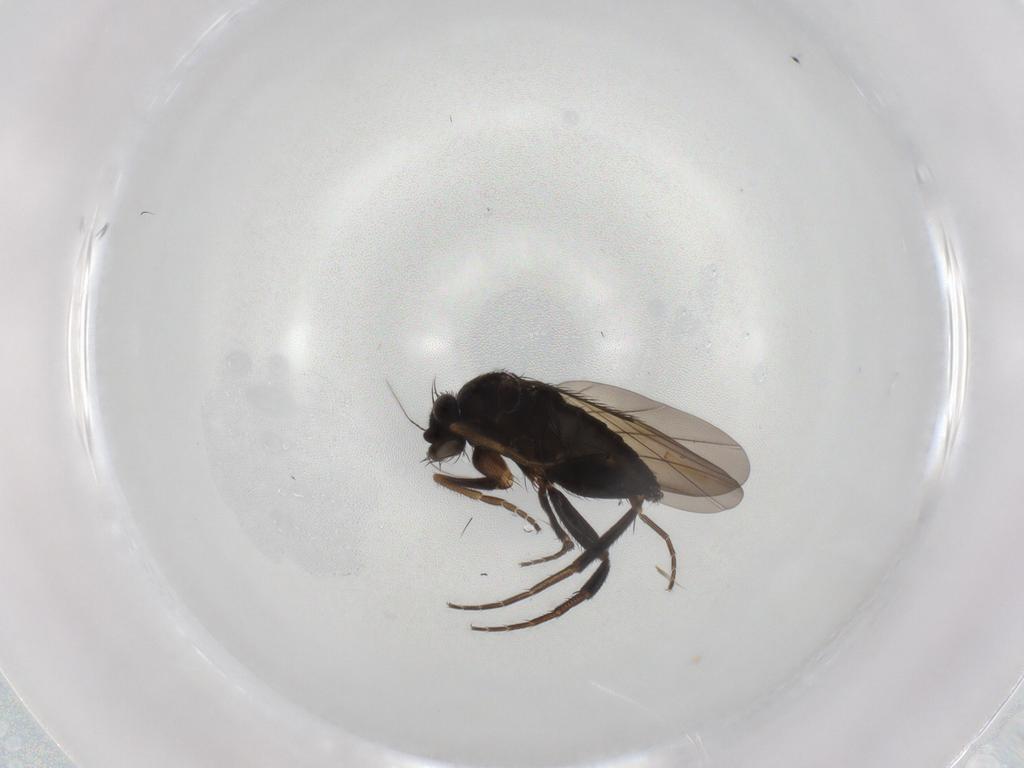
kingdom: Animalia
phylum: Arthropoda
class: Insecta
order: Diptera
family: Phoridae
